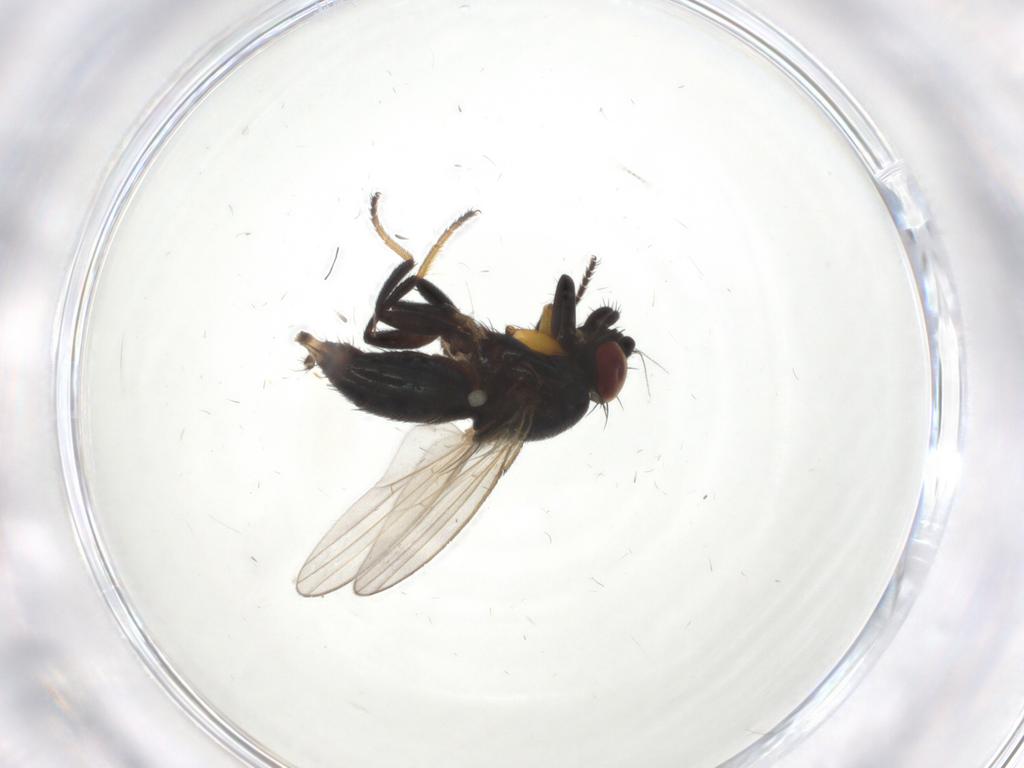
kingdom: Animalia
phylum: Arthropoda
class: Insecta
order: Diptera
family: Milichiidae
